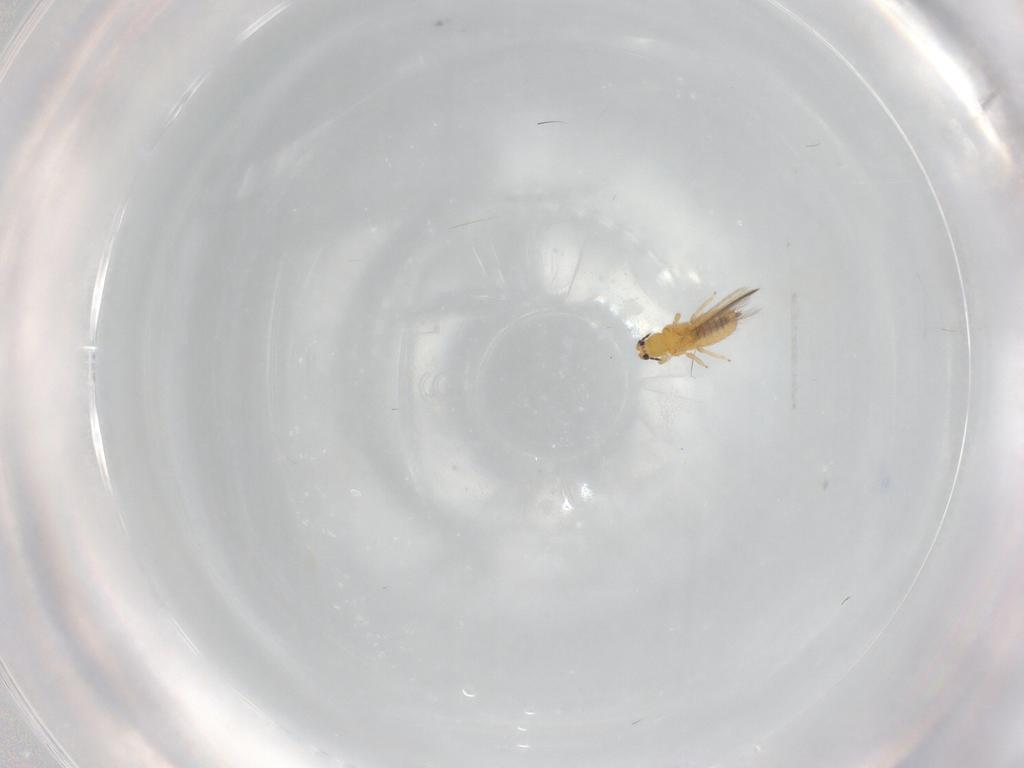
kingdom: Animalia
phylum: Arthropoda
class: Insecta
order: Thysanoptera
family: Thripidae
